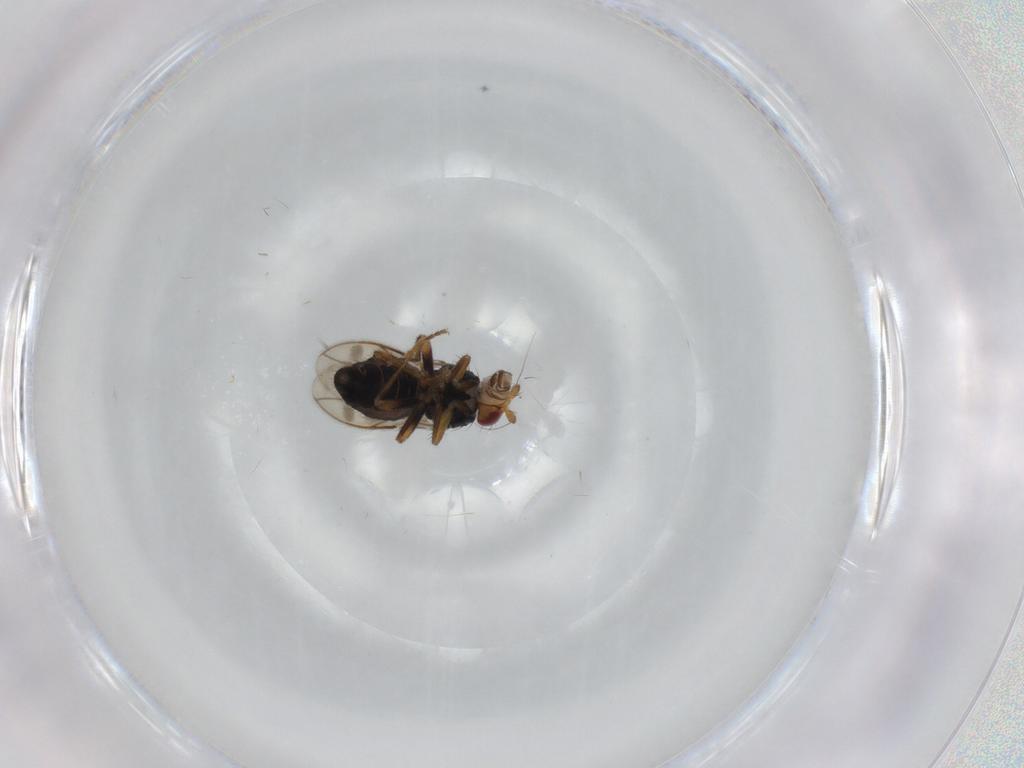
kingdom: Animalia
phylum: Arthropoda
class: Insecta
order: Diptera
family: Sphaeroceridae
